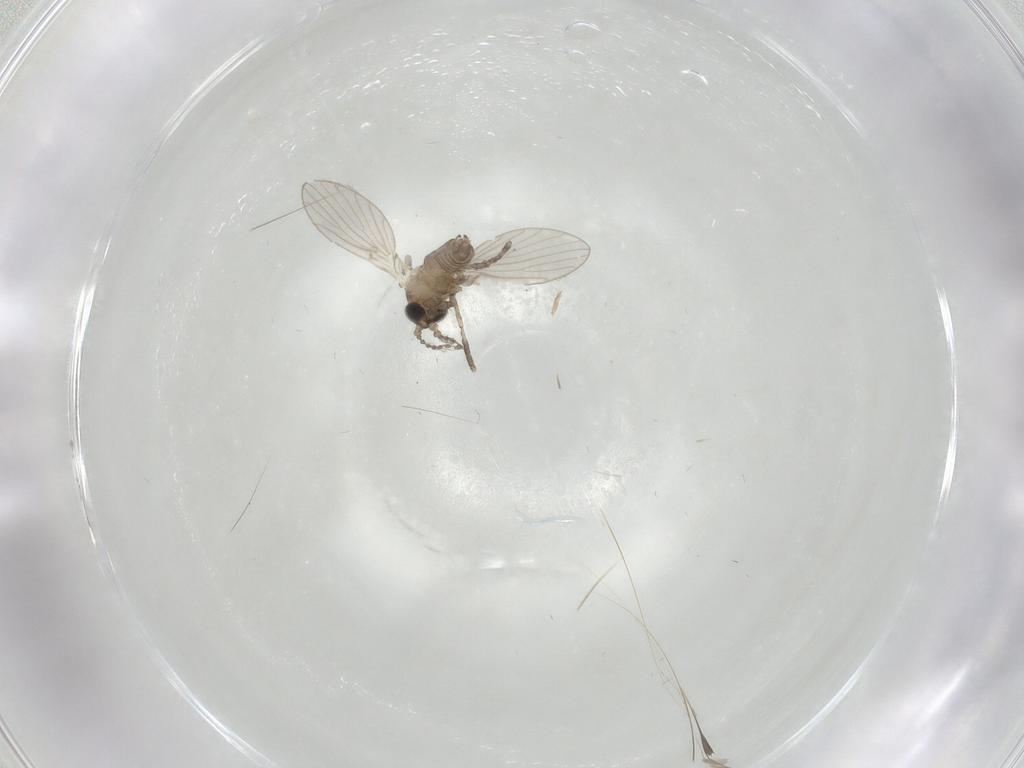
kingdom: Animalia
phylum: Arthropoda
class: Insecta
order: Diptera
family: Psychodidae
